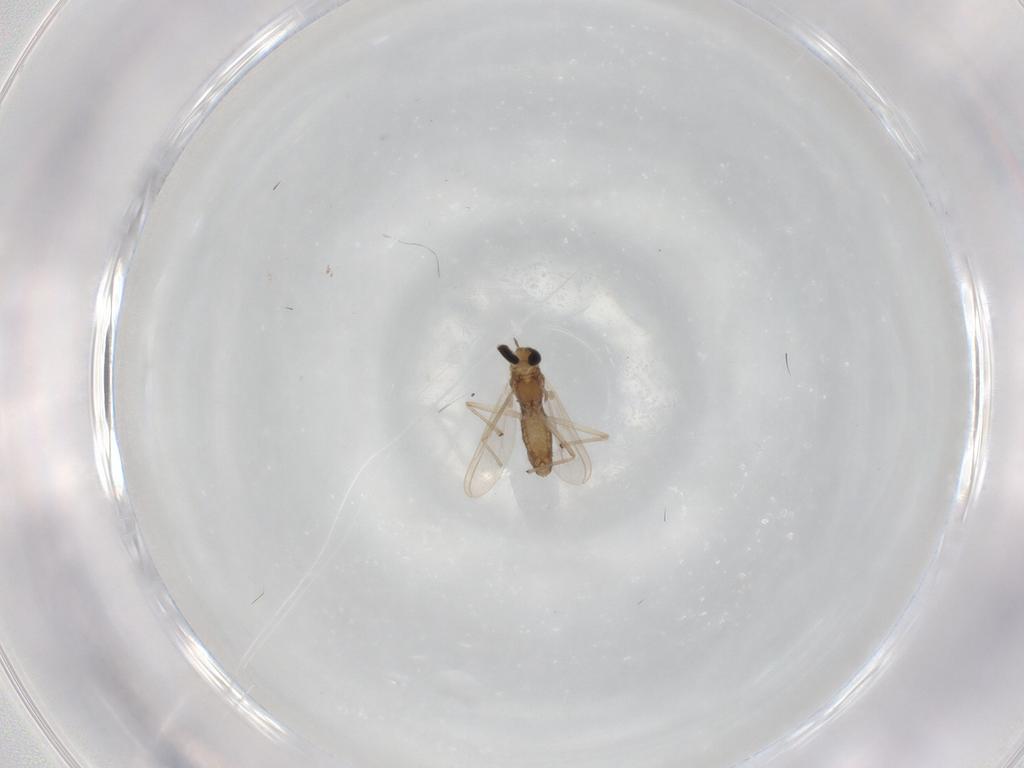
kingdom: Animalia
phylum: Arthropoda
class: Insecta
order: Diptera
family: Chironomidae
